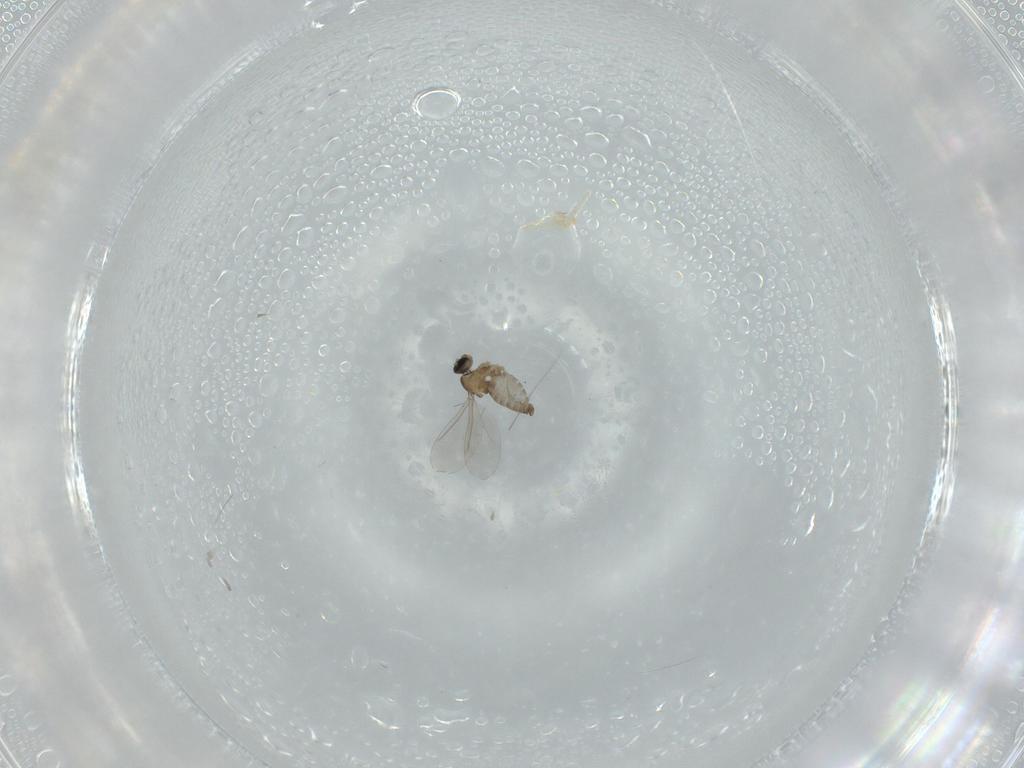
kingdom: Animalia
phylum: Arthropoda
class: Insecta
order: Diptera
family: Cecidomyiidae
